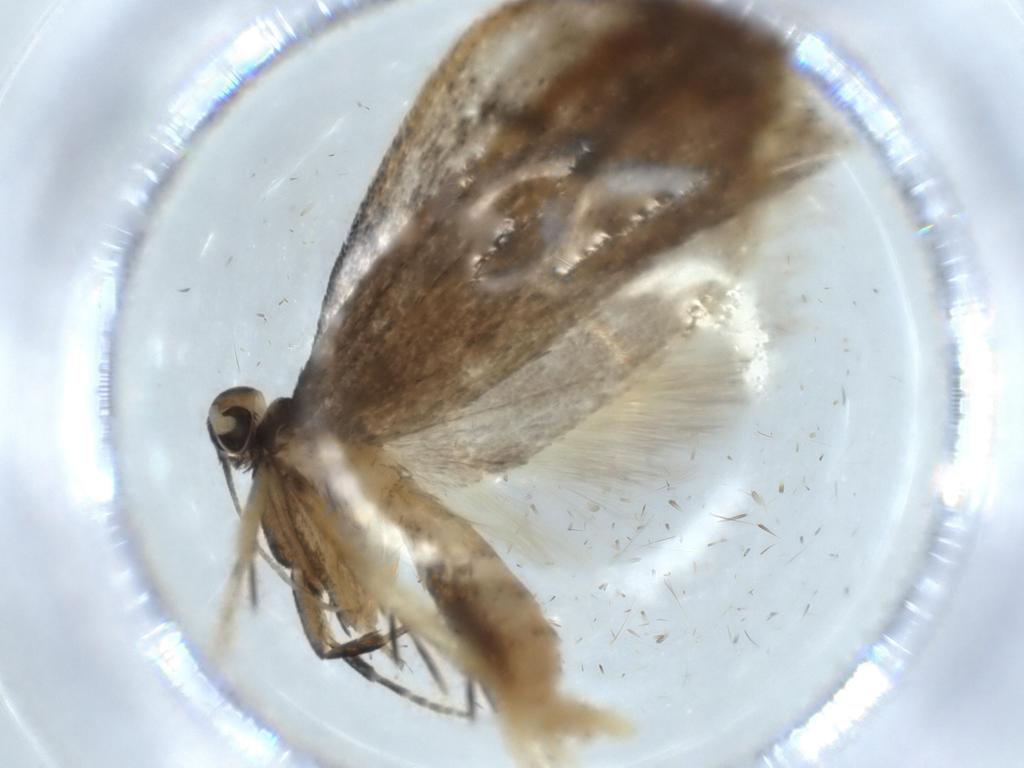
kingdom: Animalia
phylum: Arthropoda
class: Insecta
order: Lepidoptera
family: Lecithoceridae
